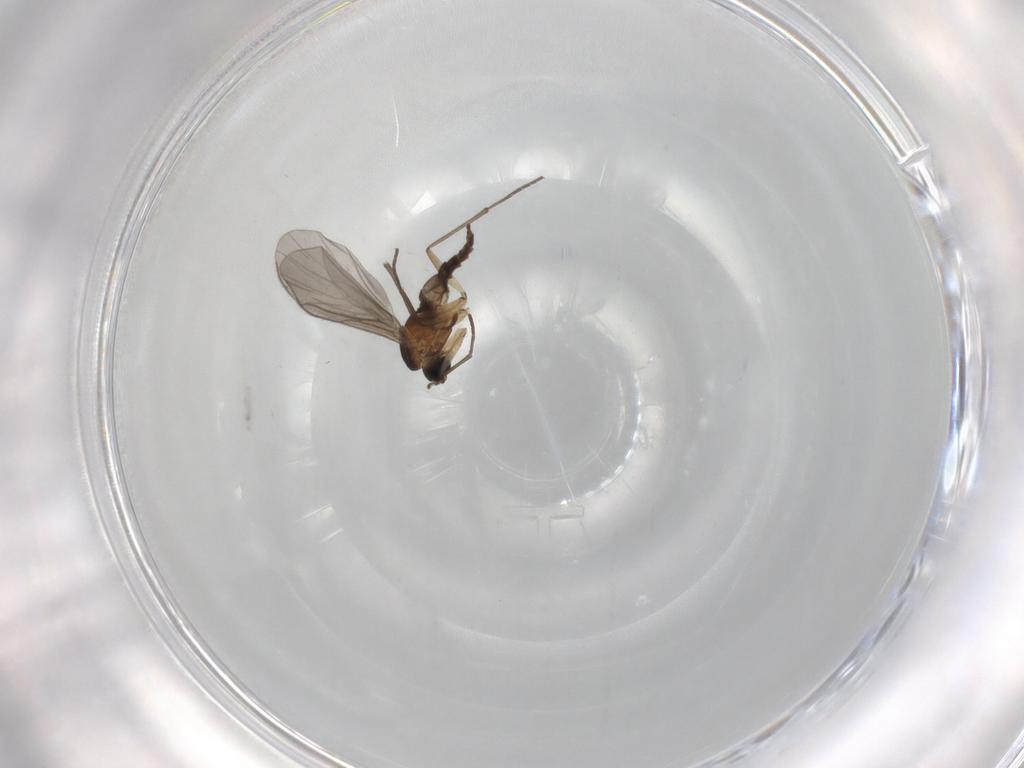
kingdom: Animalia
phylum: Arthropoda
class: Insecta
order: Diptera
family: Sciaridae
